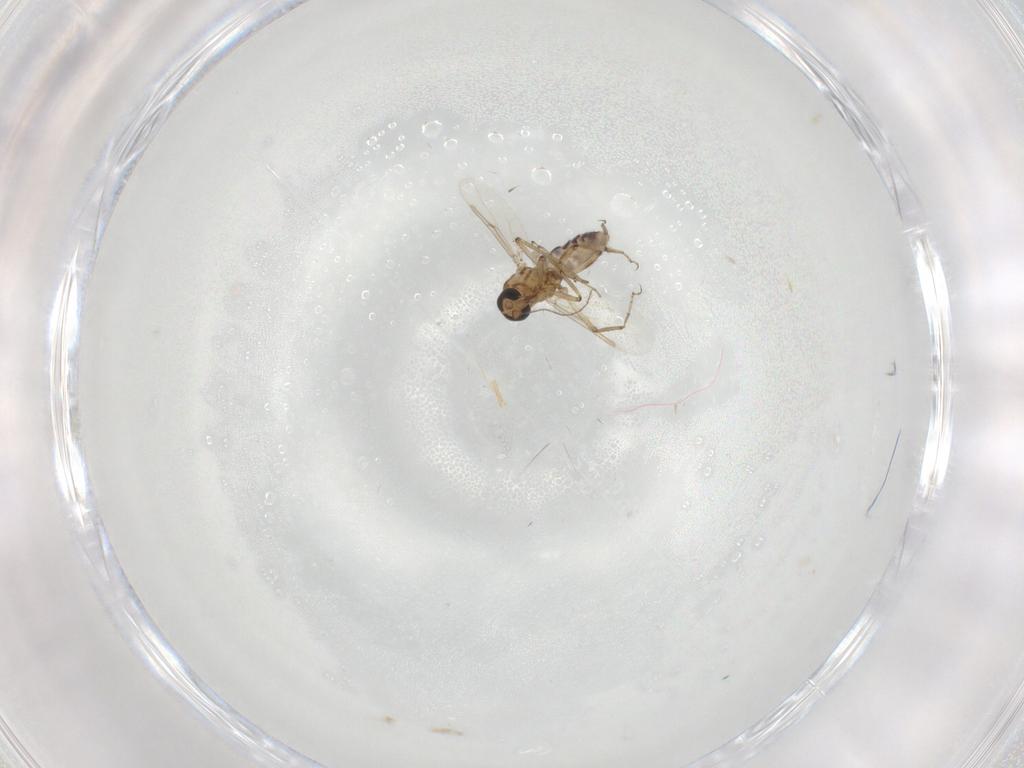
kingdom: Animalia
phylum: Arthropoda
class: Insecta
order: Diptera
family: Ceratopogonidae
